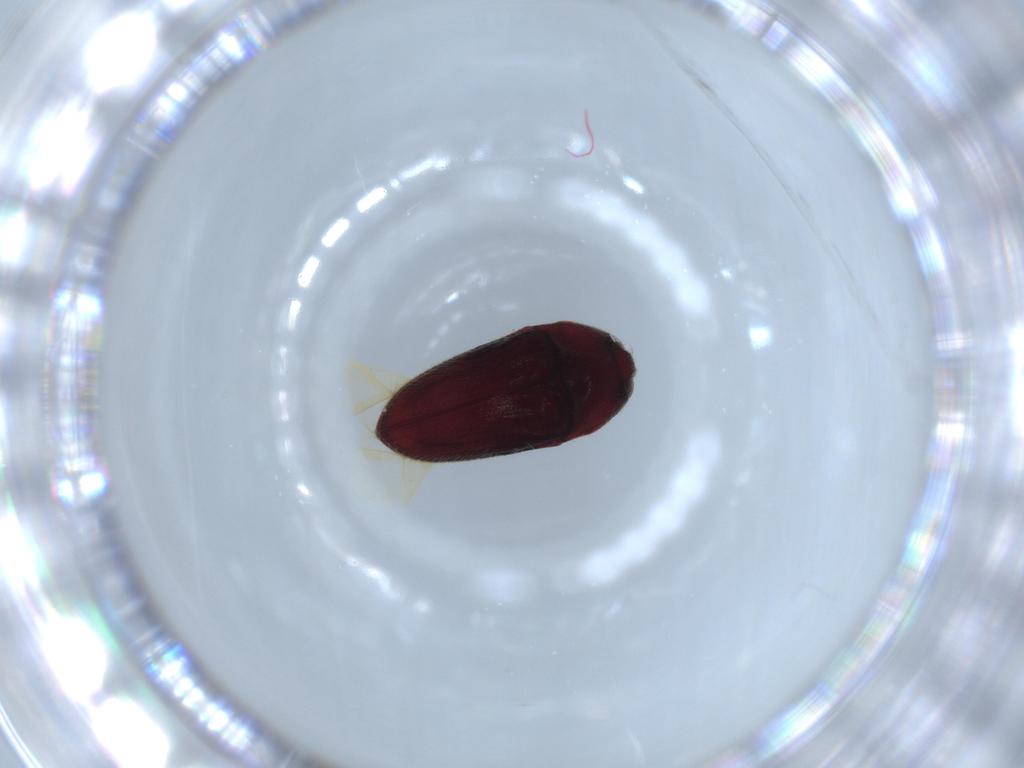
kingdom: Animalia
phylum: Arthropoda
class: Insecta
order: Coleoptera
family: Throscidae
